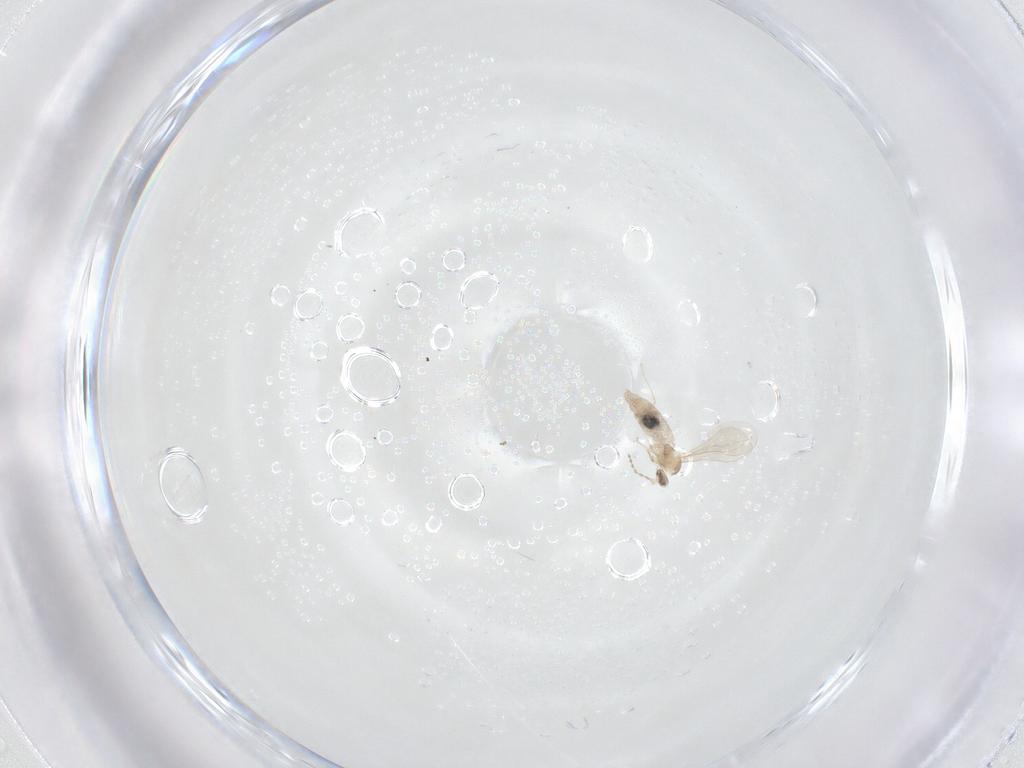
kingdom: Animalia
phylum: Arthropoda
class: Insecta
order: Diptera
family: Cecidomyiidae
